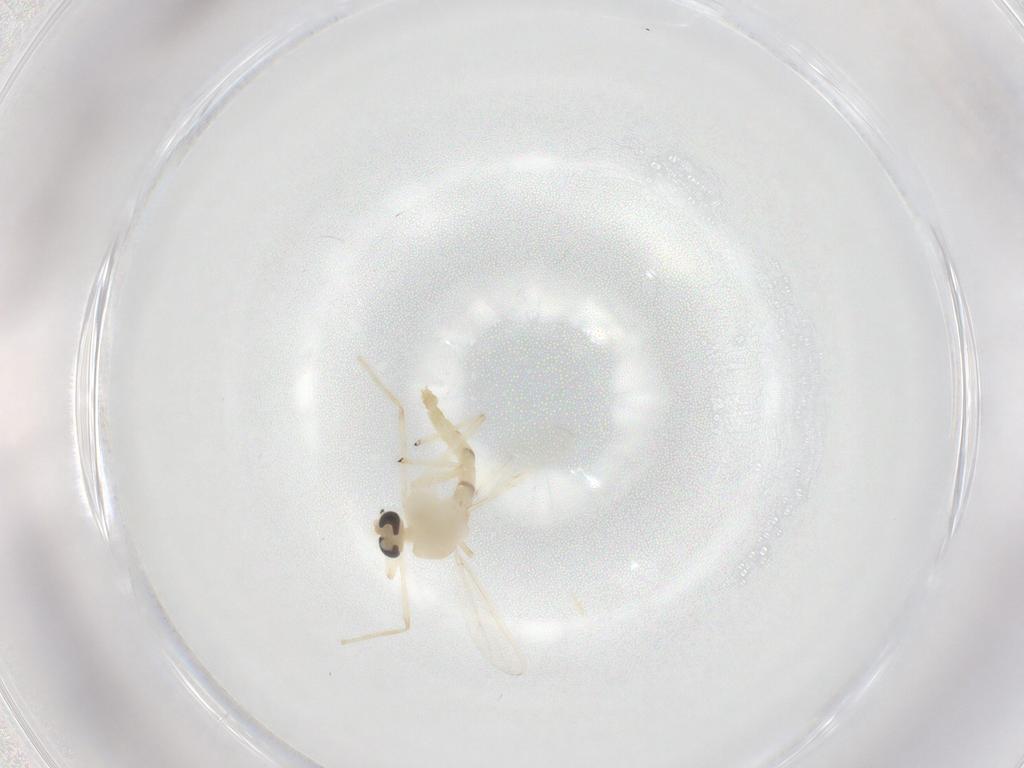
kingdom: Animalia
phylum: Arthropoda
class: Insecta
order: Diptera
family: Chironomidae
